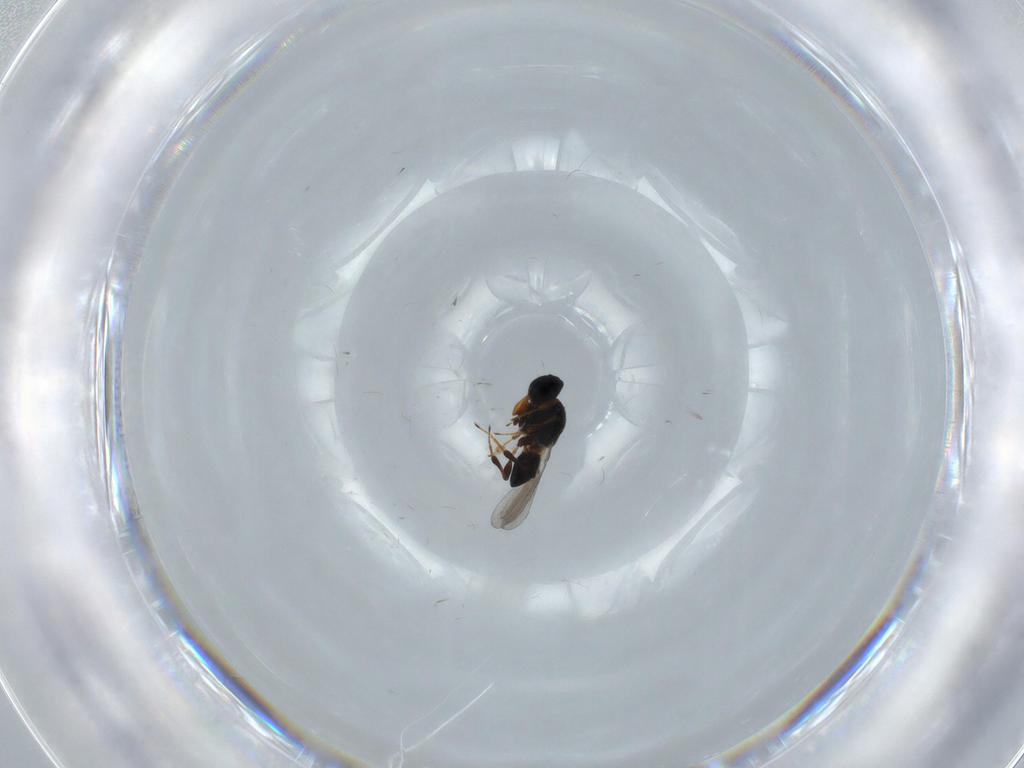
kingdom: Animalia
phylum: Arthropoda
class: Insecta
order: Hymenoptera
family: Platygastridae
